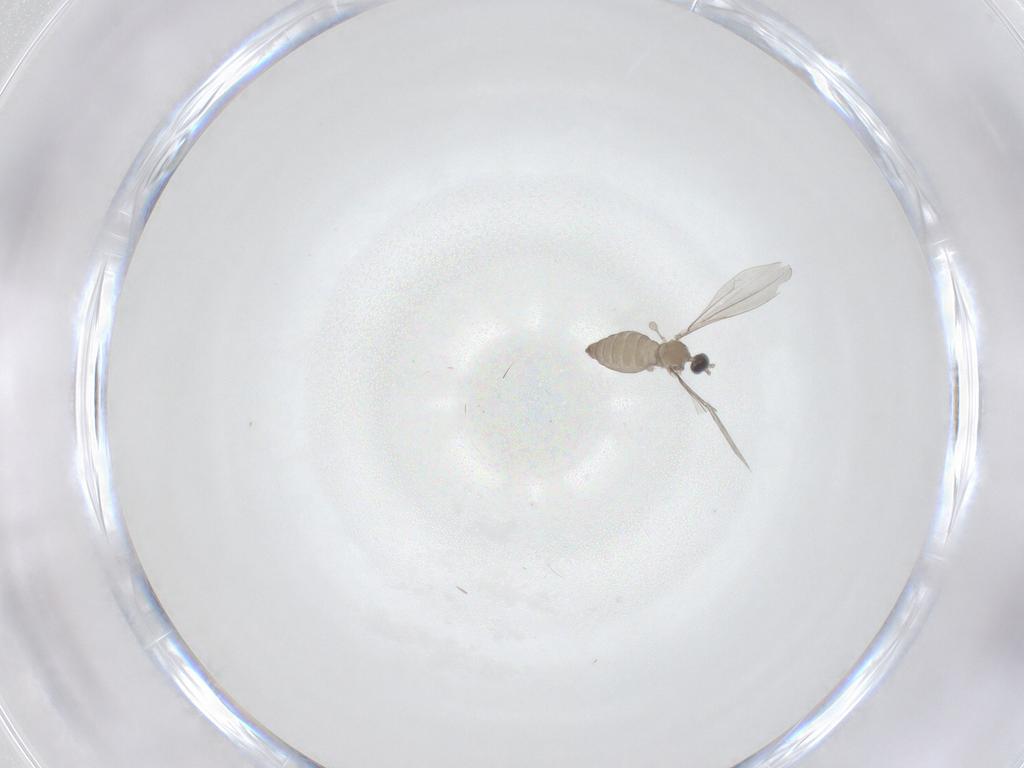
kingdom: Animalia
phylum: Arthropoda
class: Insecta
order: Diptera
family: Cecidomyiidae
